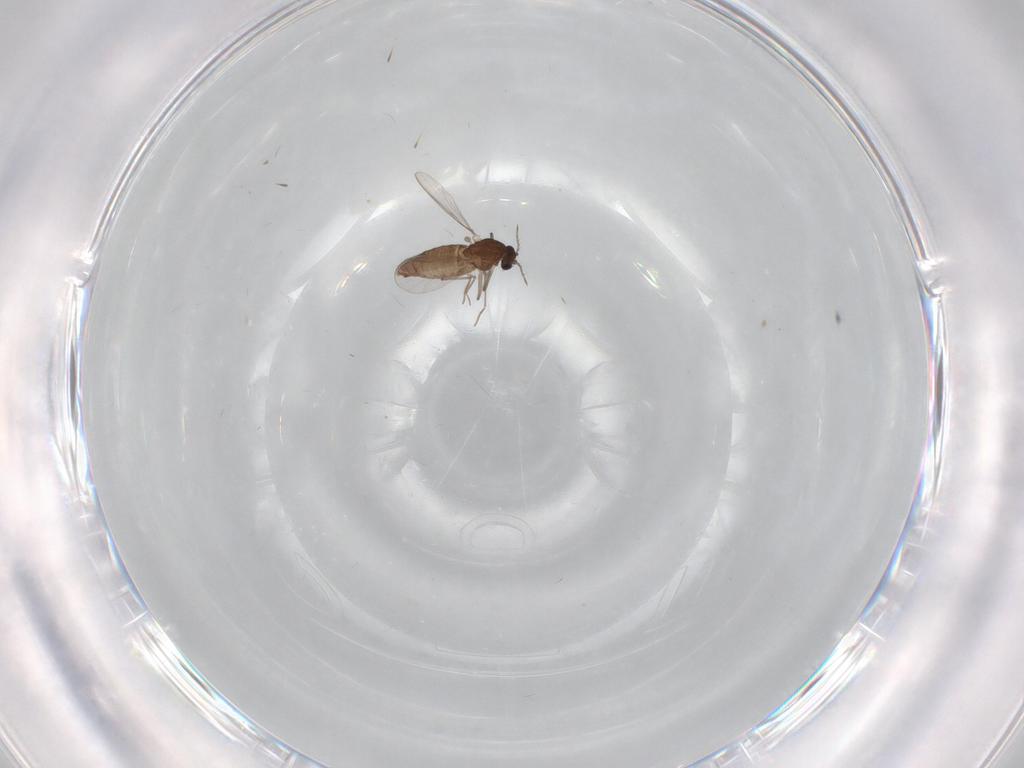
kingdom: Animalia
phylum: Arthropoda
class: Insecta
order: Diptera
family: Chironomidae
